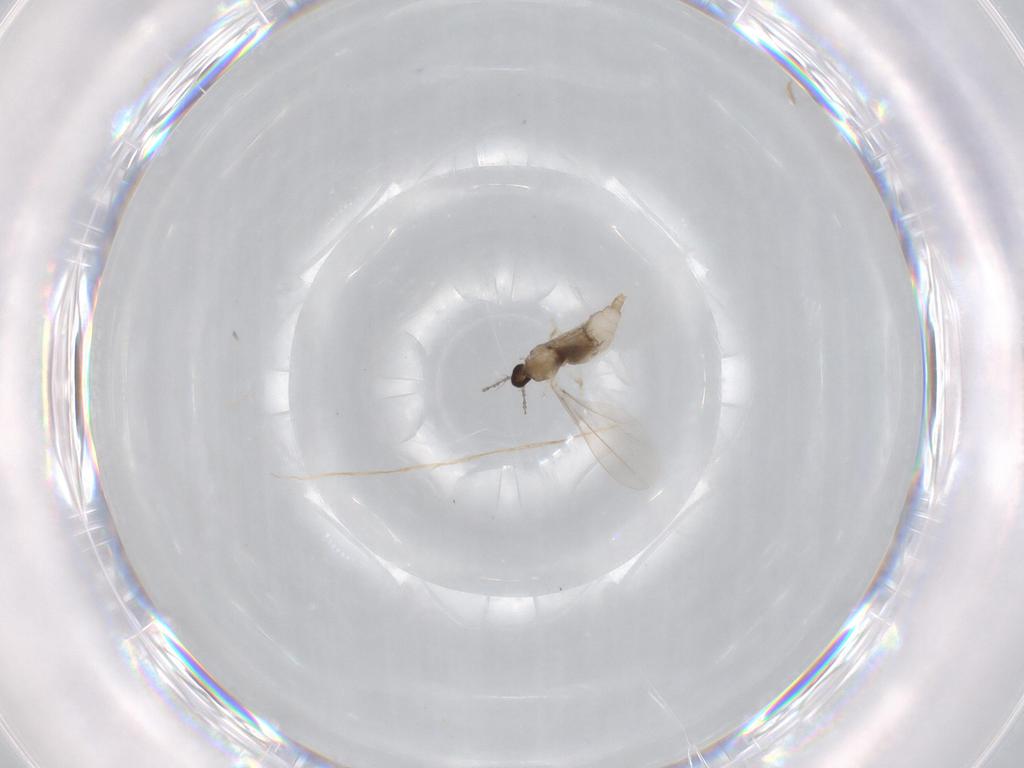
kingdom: Animalia
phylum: Arthropoda
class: Insecta
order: Diptera
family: Cecidomyiidae
